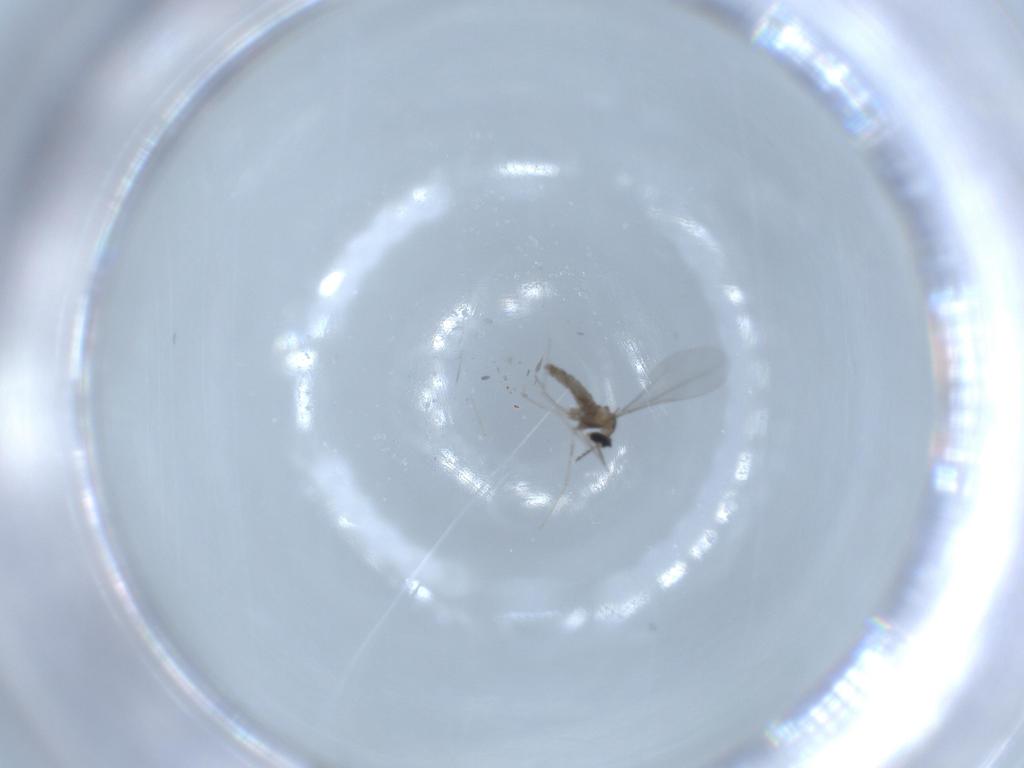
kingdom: Animalia
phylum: Arthropoda
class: Insecta
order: Diptera
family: Cecidomyiidae
